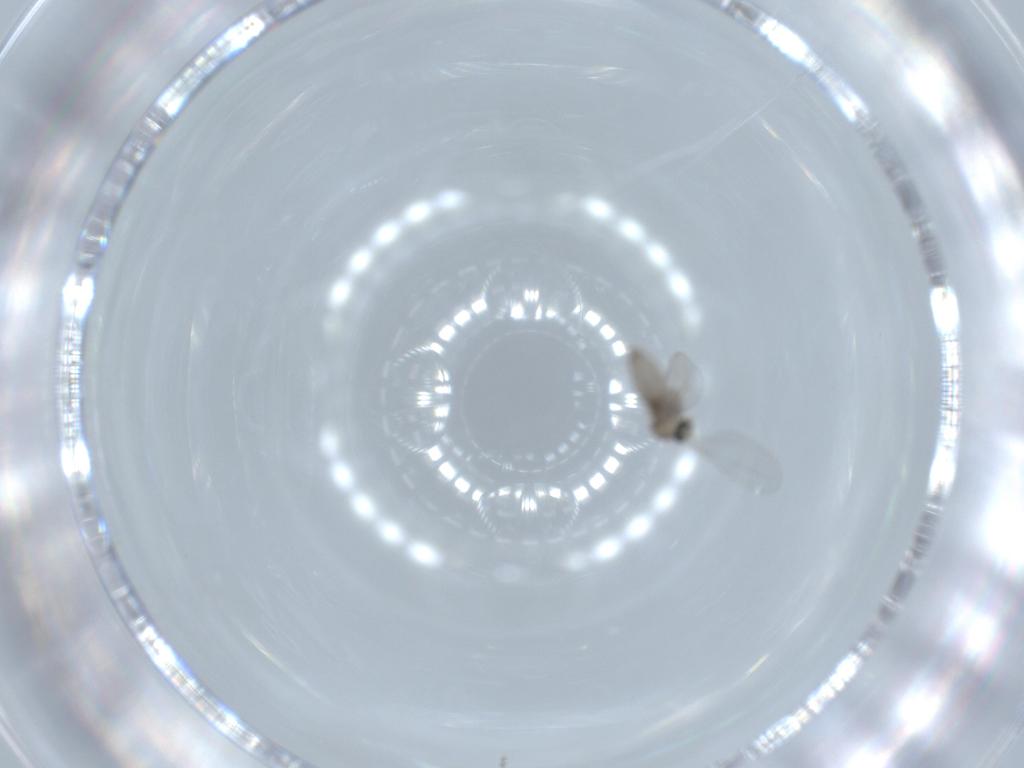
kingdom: Animalia
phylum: Arthropoda
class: Insecta
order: Diptera
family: Cecidomyiidae
